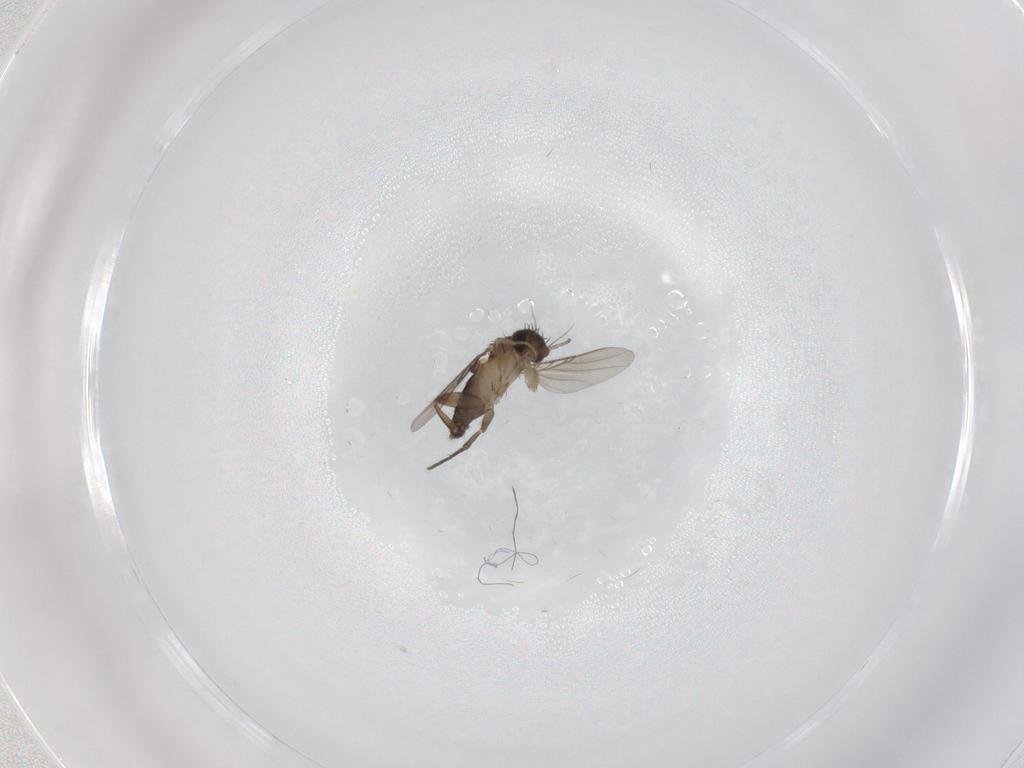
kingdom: Animalia
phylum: Arthropoda
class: Insecta
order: Diptera
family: Phoridae
